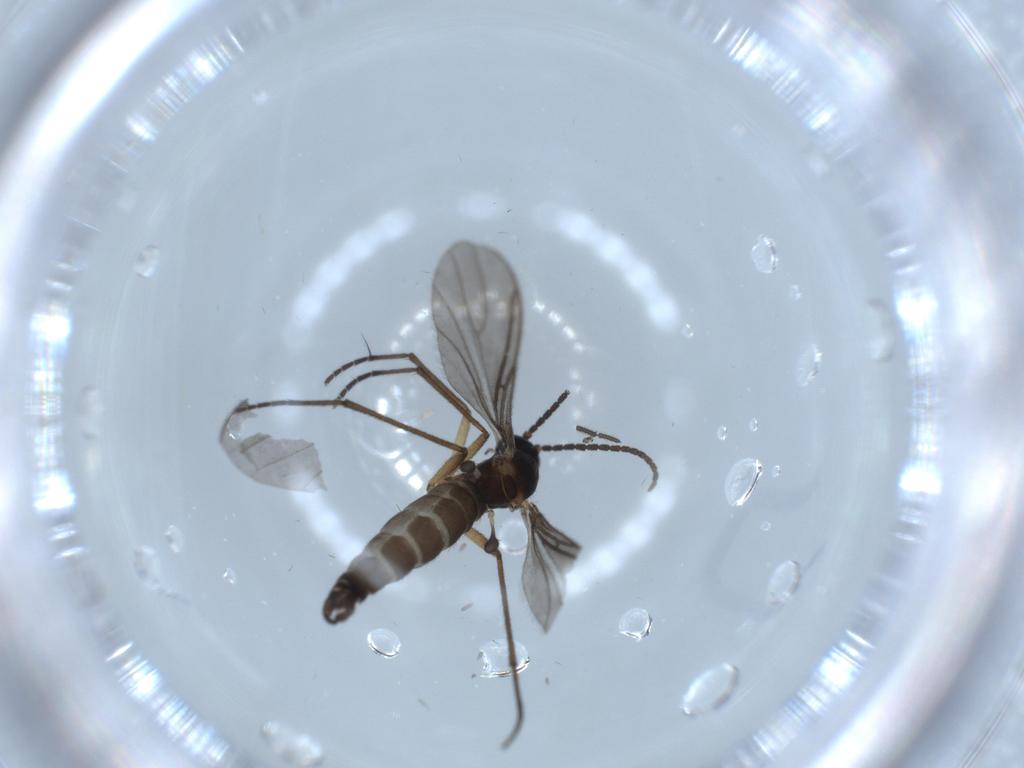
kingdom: Animalia
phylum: Arthropoda
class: Insecta
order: Diptera
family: Sciaridae
